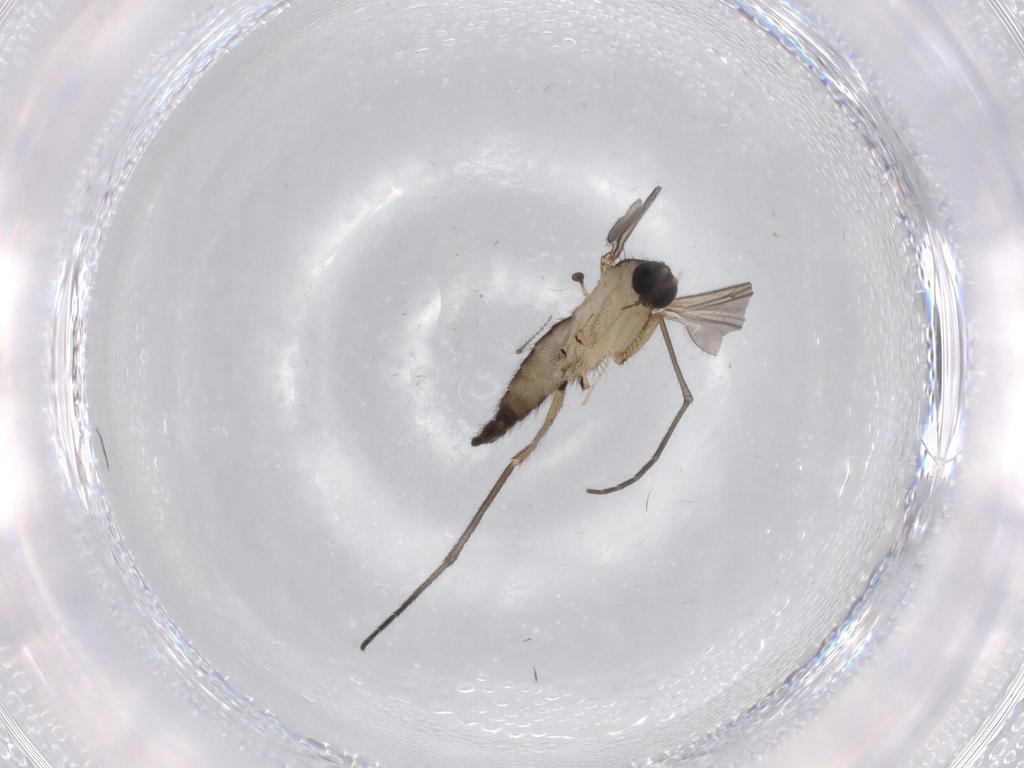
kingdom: Animalia
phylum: Arthropoda
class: Insecta
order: Diptera
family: Sciaridae
